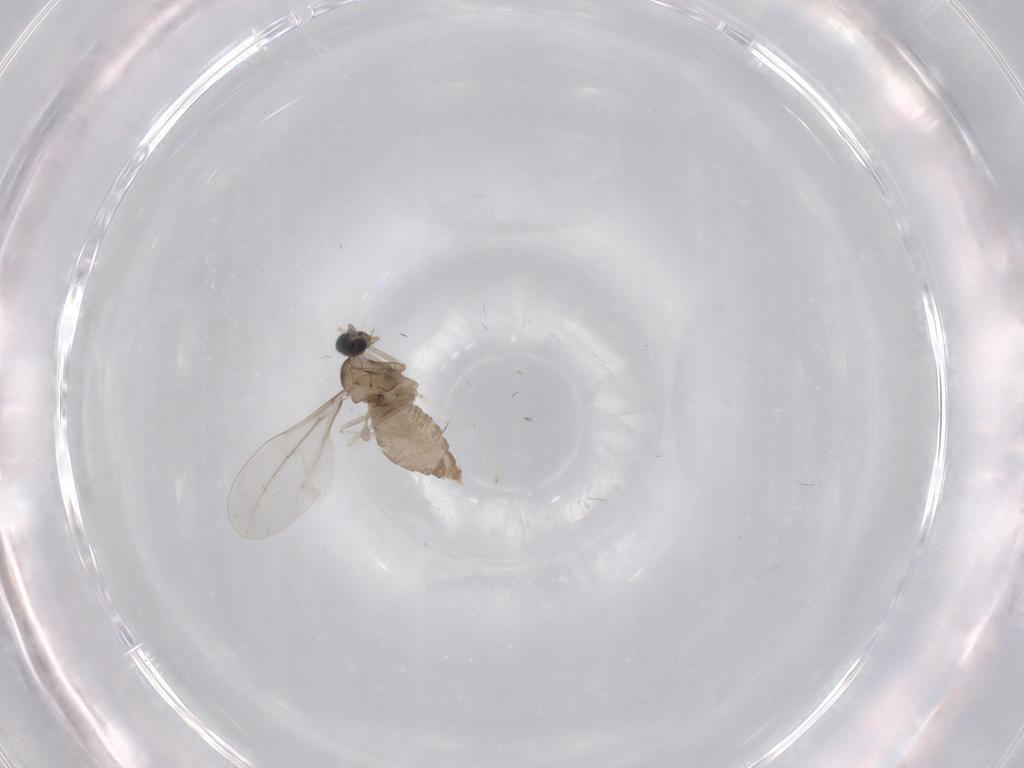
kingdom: Animalia
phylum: Arthropoda
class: Insecta
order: Diptera
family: Cecidomyiidae
